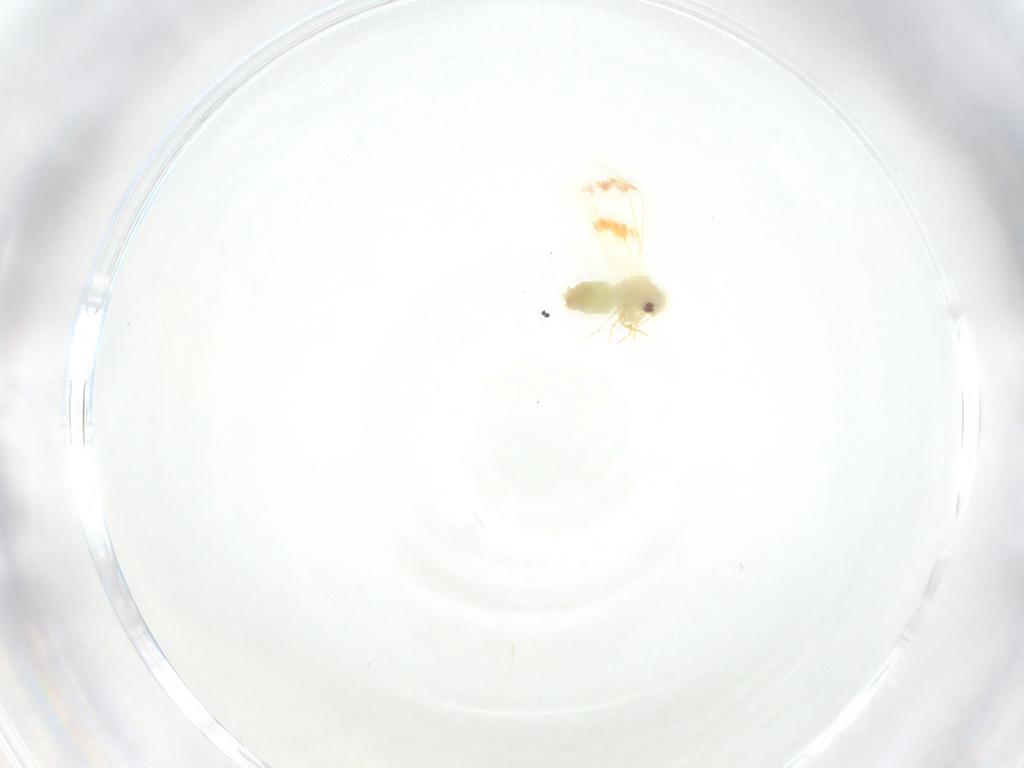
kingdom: Animalia
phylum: Arthropoda
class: Insecta
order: Hemiptera
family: Aleyrodidae
